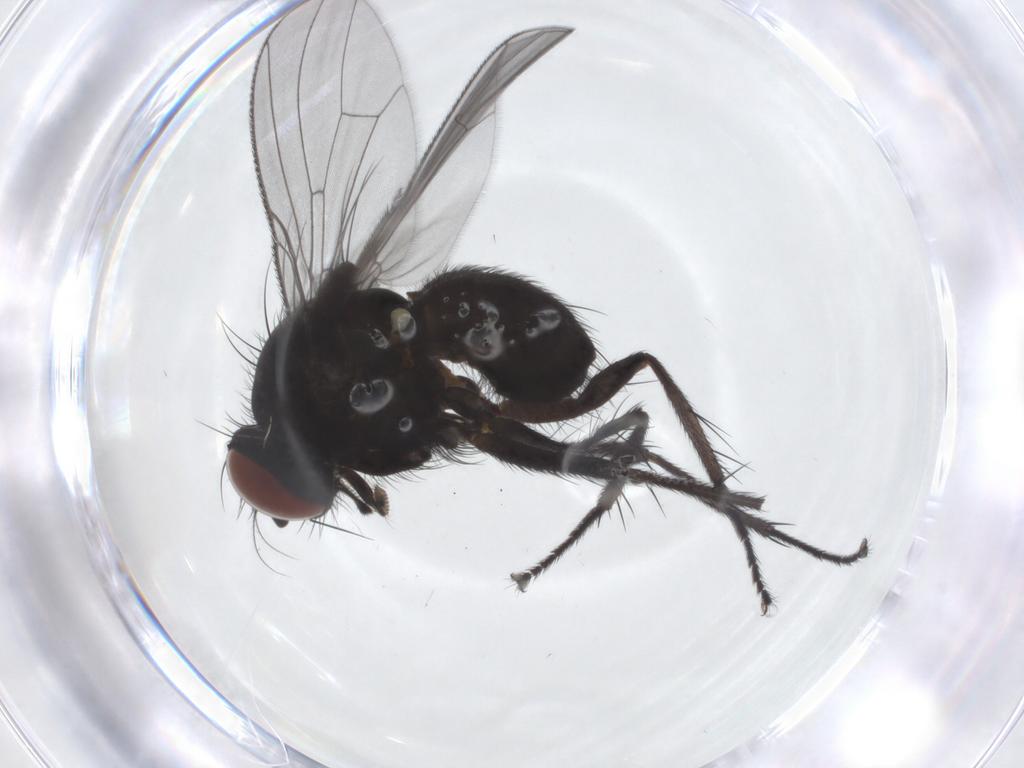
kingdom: Animalia
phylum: Arthropoda
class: Insecta
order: Diptera
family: Muscidae
